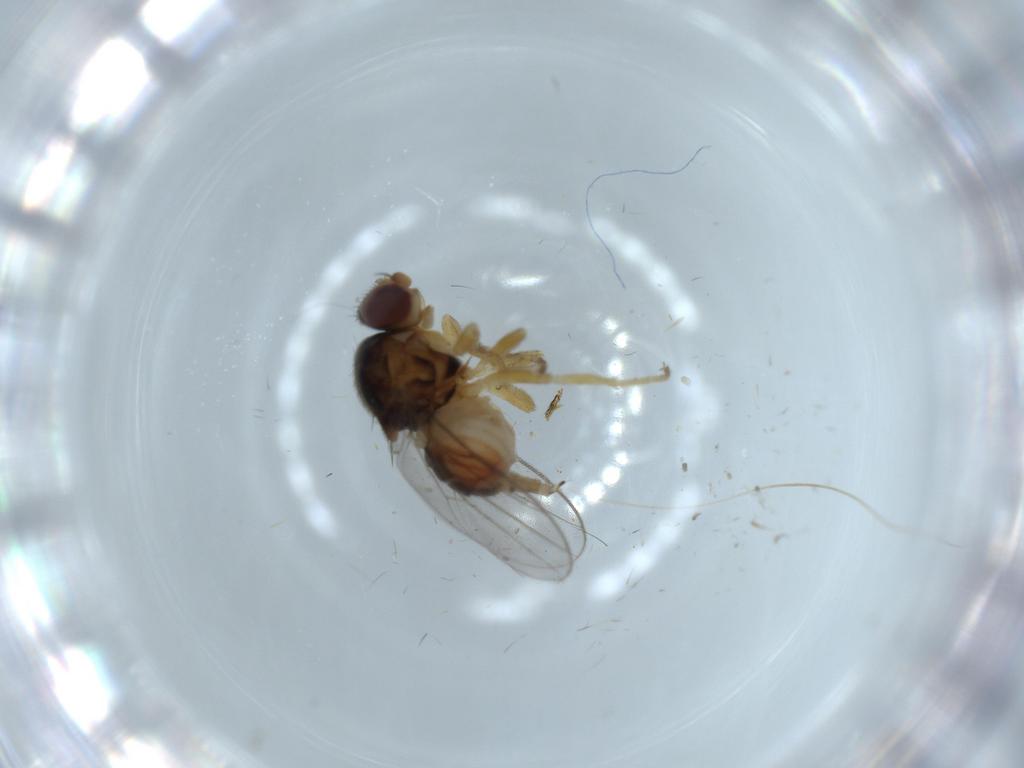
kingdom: Animalia
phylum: Arthropoda
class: Insecta
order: Diptera
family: Chloropidae
